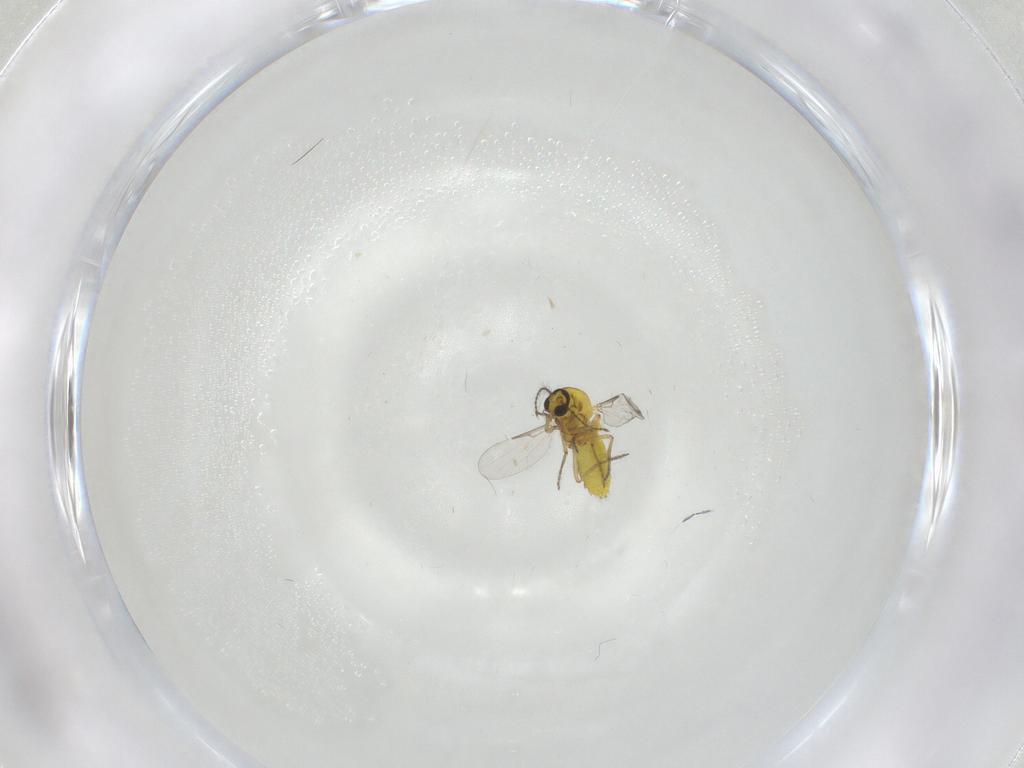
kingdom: Animalia
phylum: Arthropoda
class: Insecta
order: Diptera
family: Ceratopogonidae
